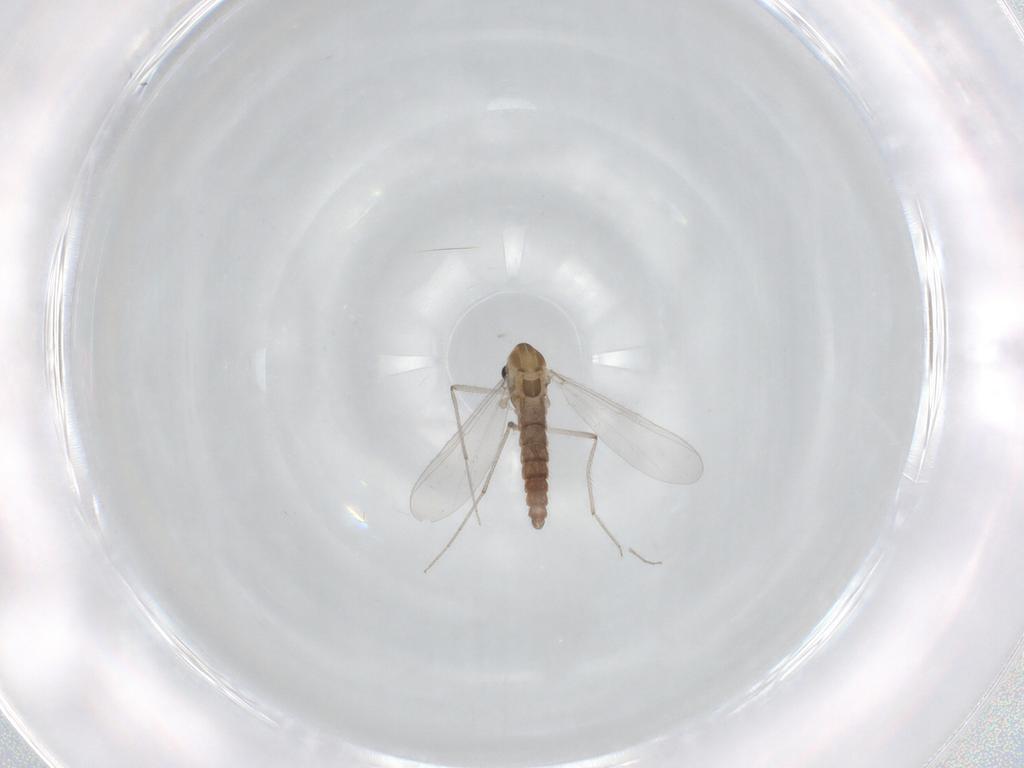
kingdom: Animalia
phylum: Arthropoda
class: Insecta
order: Diptera
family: Chironomidae
